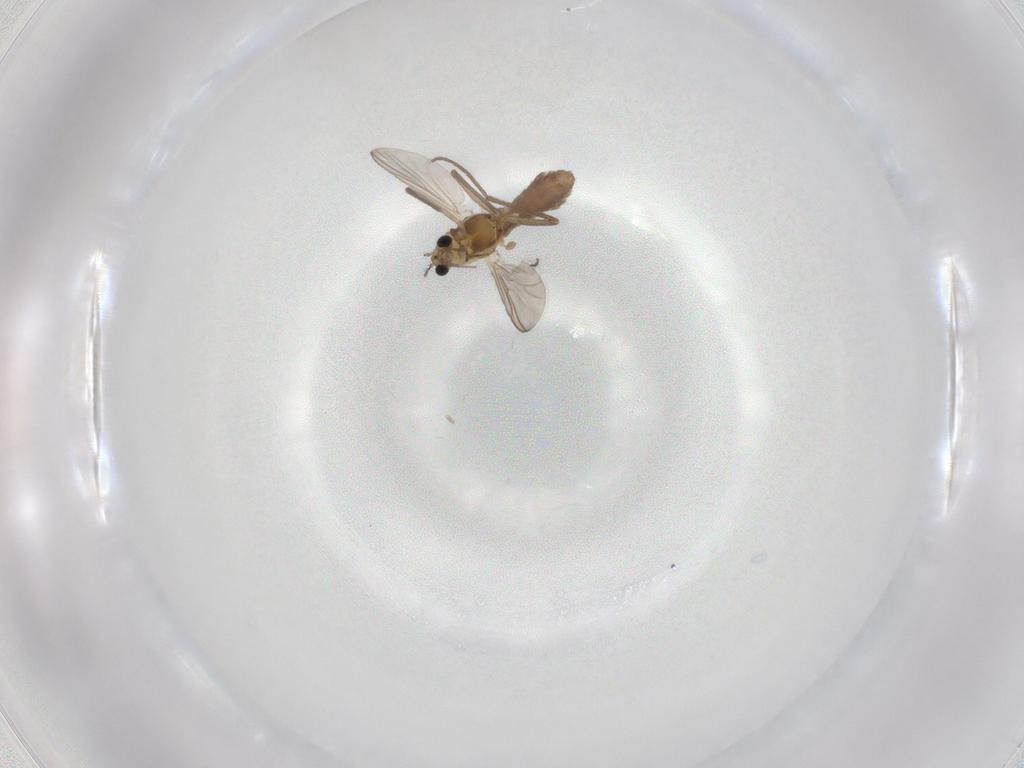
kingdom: Animalia
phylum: Arthropoda
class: Insecta
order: Diptera
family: Chironomidae
